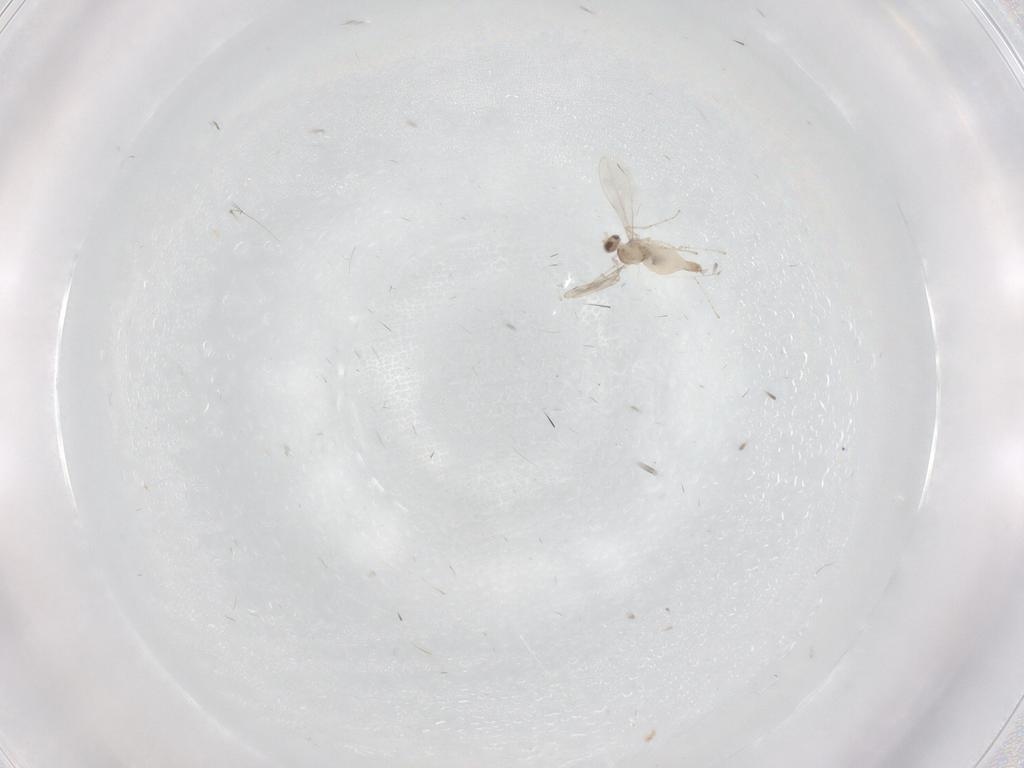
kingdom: Animalia
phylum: Arthropoda
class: Insecta
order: Diptera
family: Cecidomyiidae
